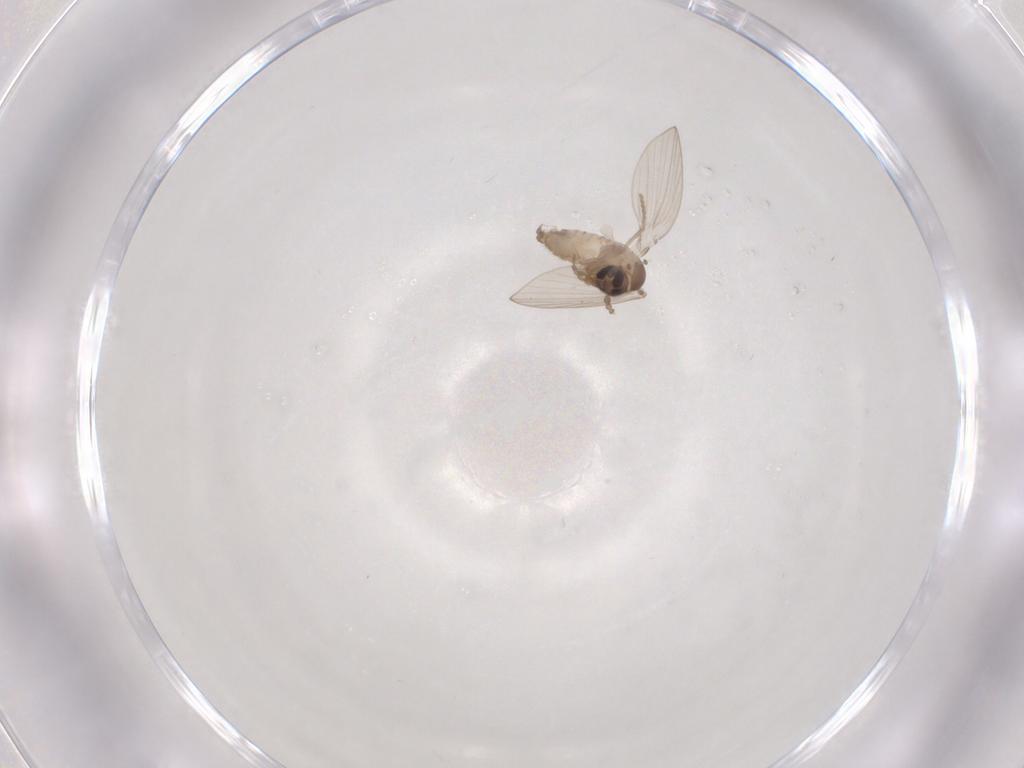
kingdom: Animalia
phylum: Arthropoda
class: Insecta
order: Diptera
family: Psychodidae
